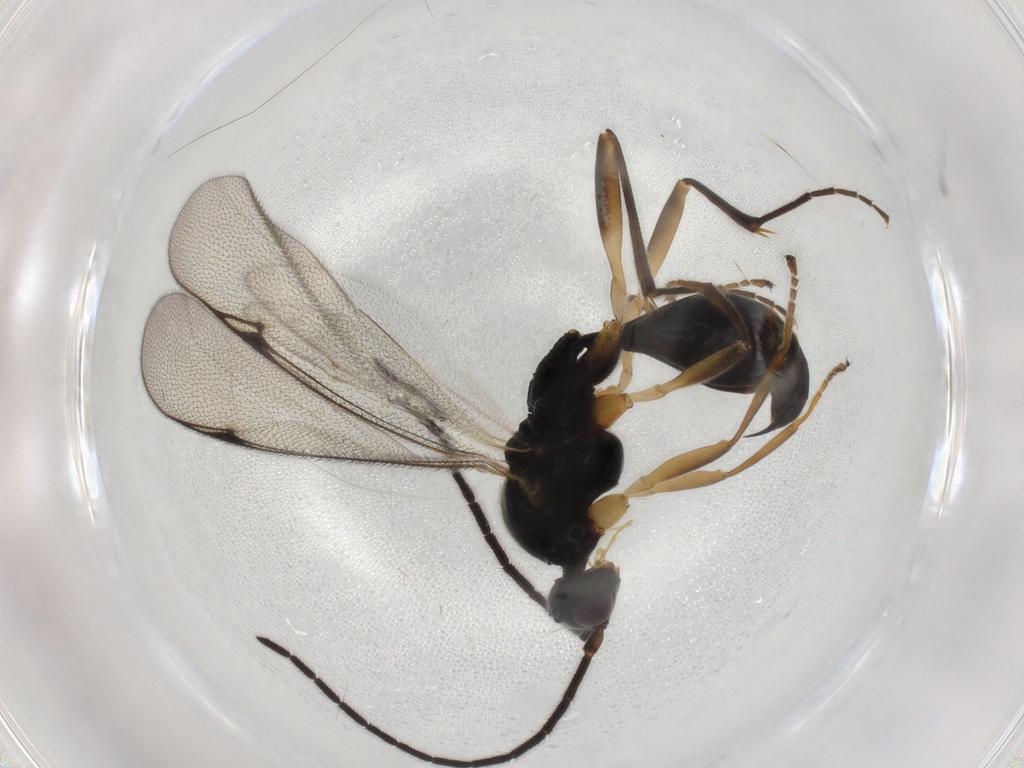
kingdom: Animalia
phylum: Arthropoda
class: Insecta
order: Hymenoptera
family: Proctotrupidae
